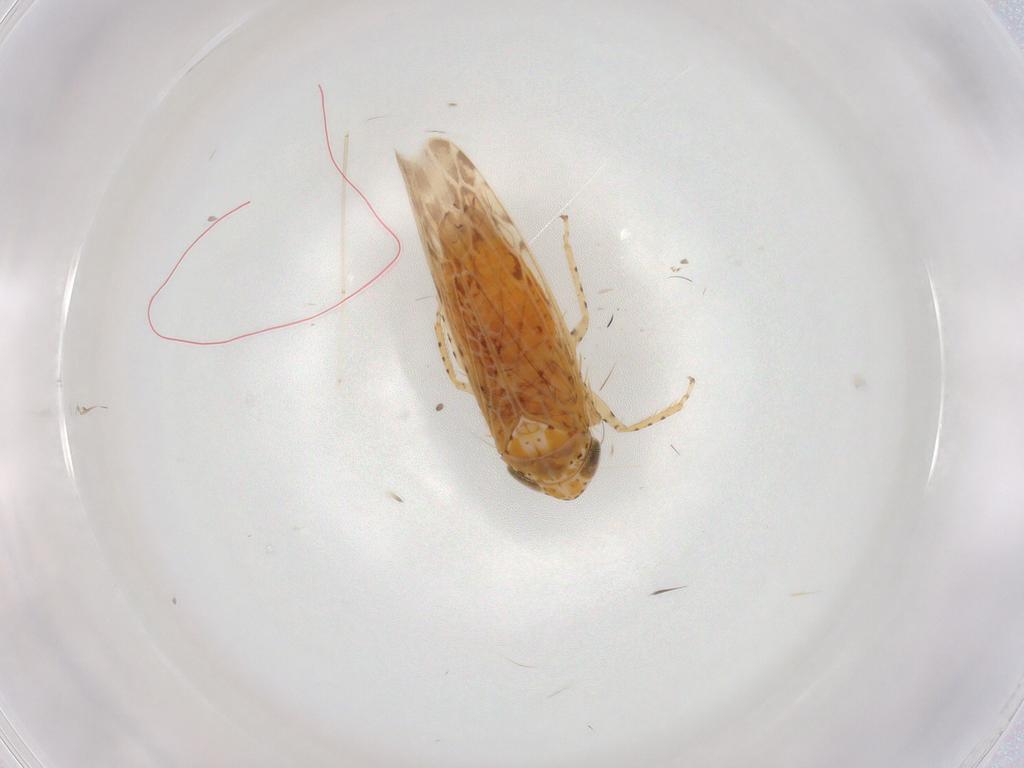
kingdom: Animalia
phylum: Arthropoda
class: Insecta
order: Hemiptera
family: Cicadellidae
